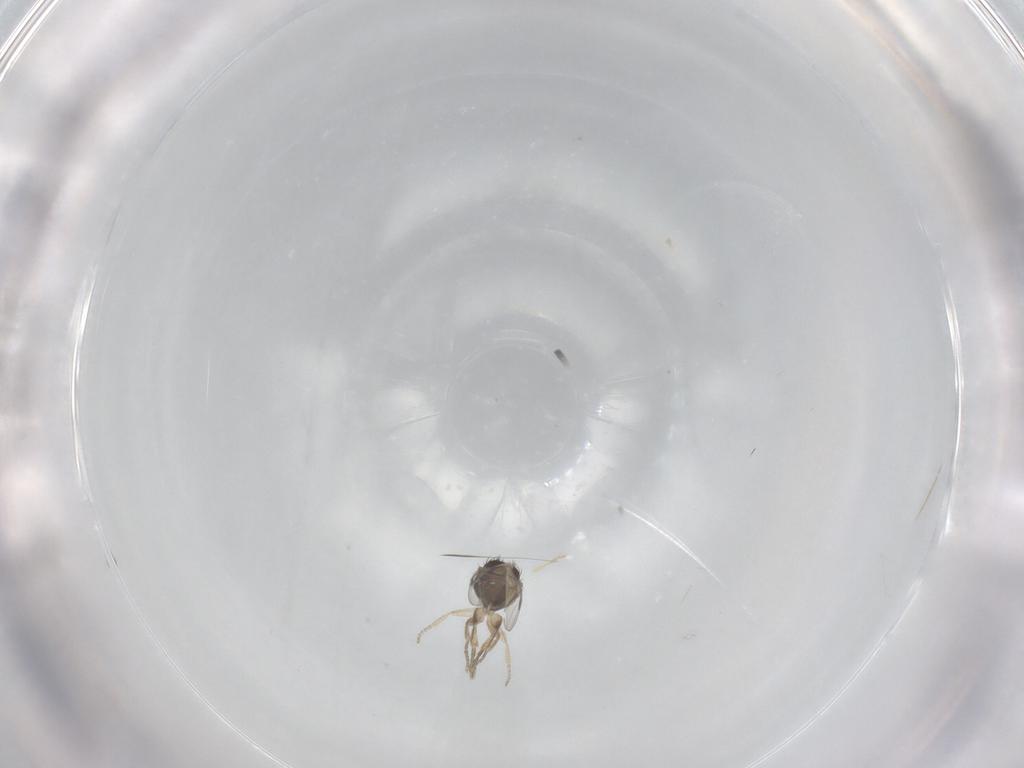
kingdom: Animalia
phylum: Arthropoda
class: Insecta
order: Diptera
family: Phoridae
